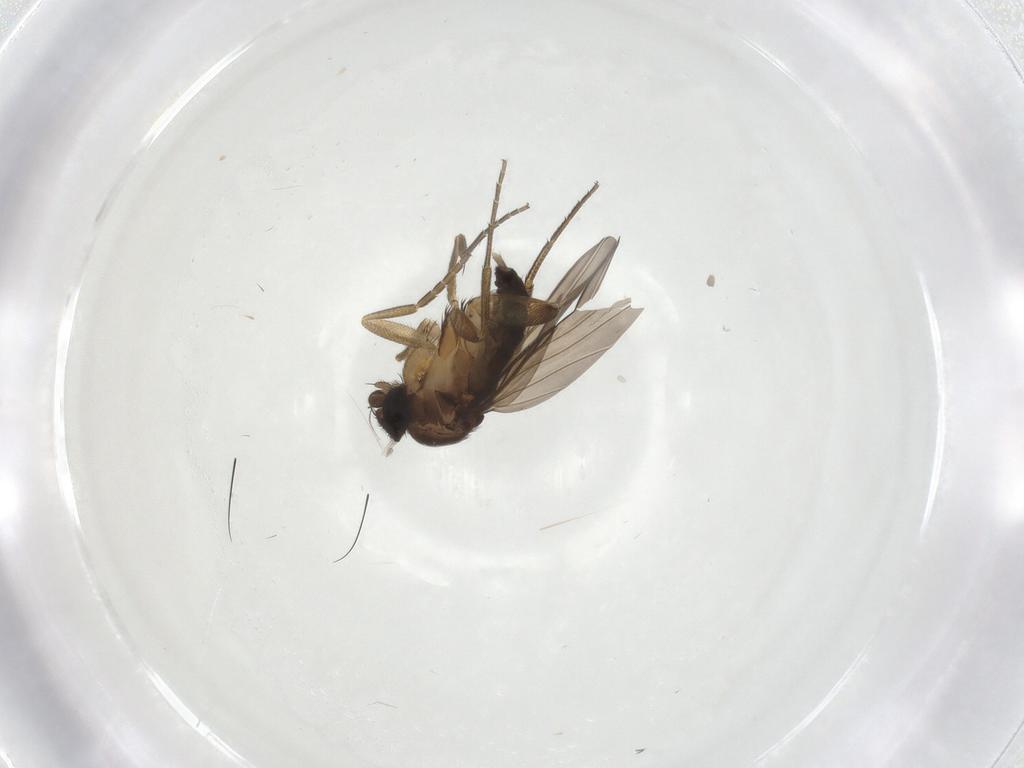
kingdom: Animalia
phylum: Arthropoda
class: Insecta
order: Diptera
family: Phoridae
